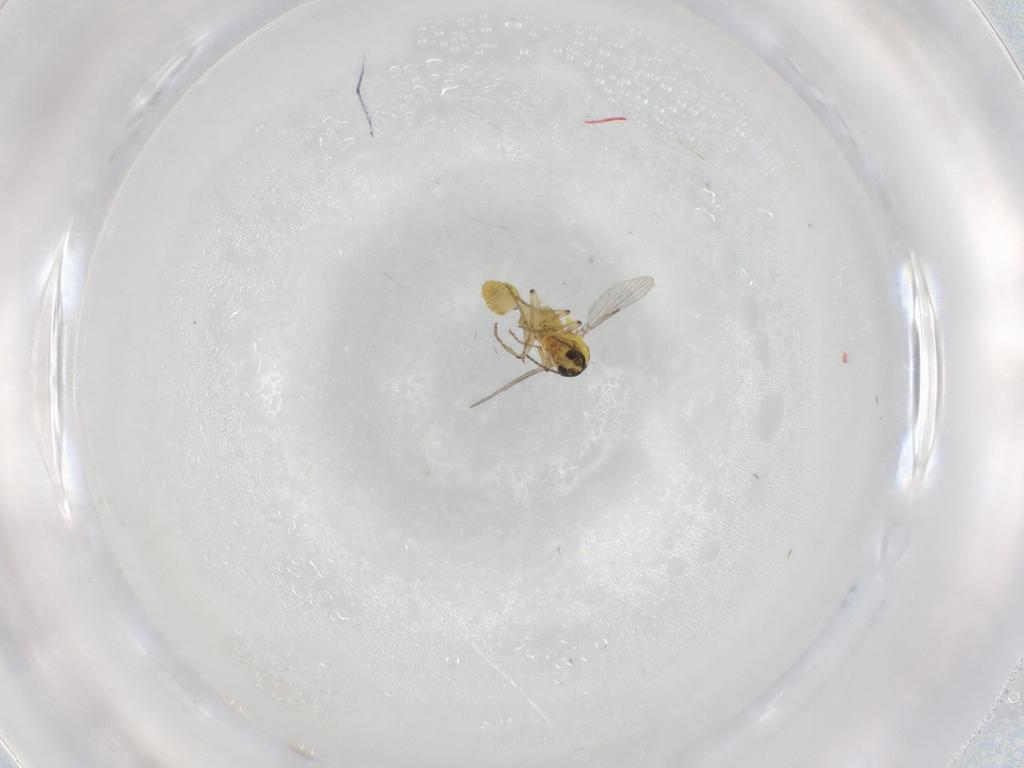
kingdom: Animalia
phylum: Arthropoda
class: Insecta
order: Diptera
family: Ceratopogonidae
